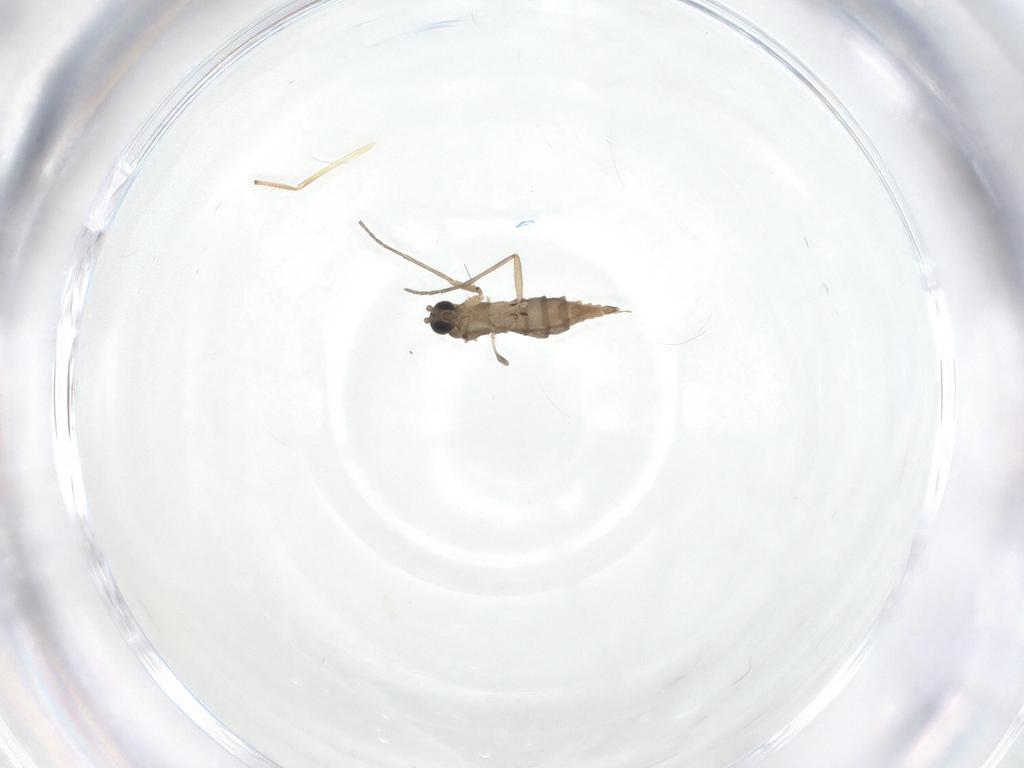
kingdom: Animalia
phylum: Arthropoda
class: Insecta
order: Diptera
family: Sciaridae
